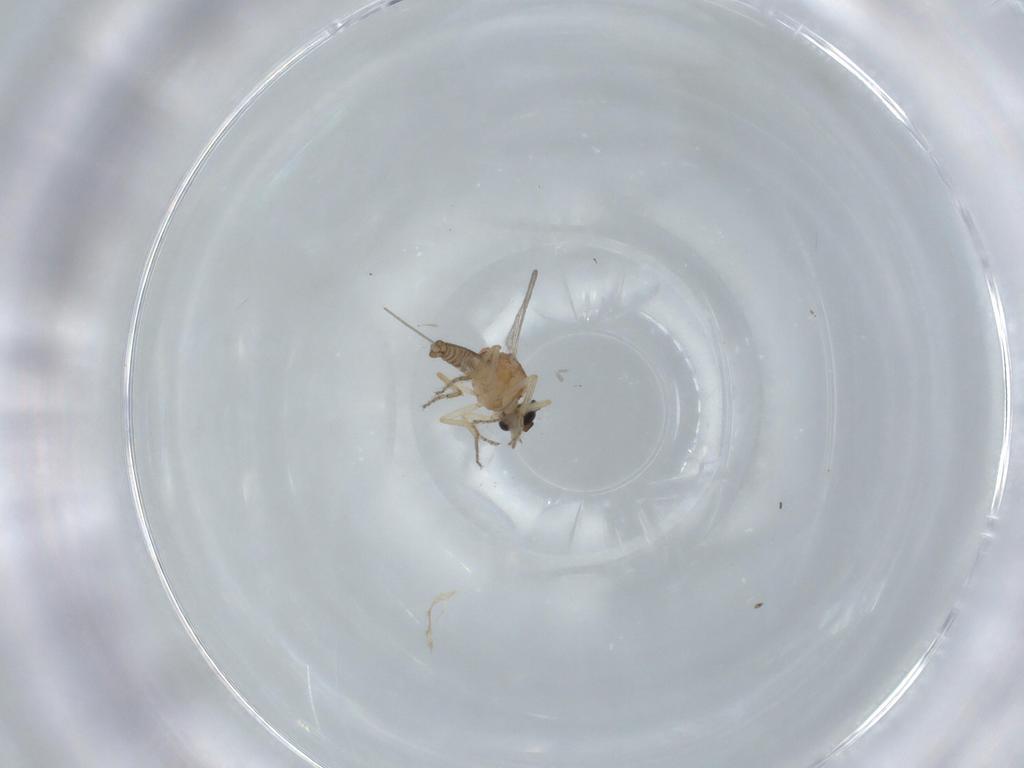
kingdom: Animalia
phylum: Arthropoda
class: Insecta
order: Diptera
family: Ceratopogonidae
